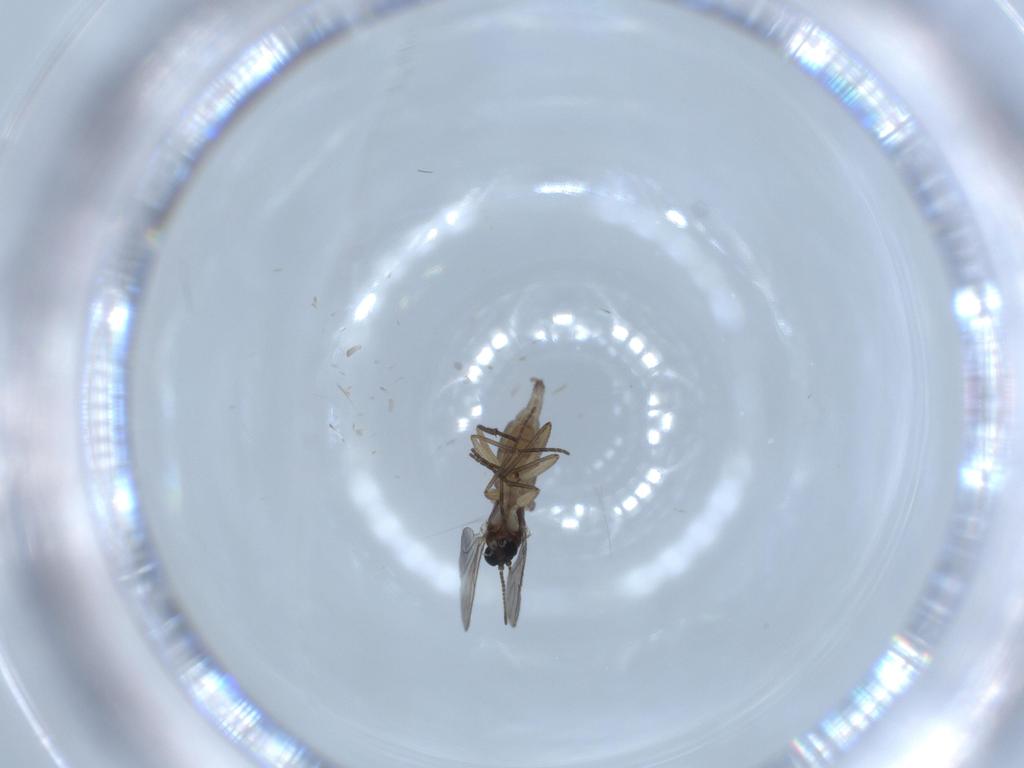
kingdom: Animalia
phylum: Arthropoda
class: Insecta
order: Diptera
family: Sciaridae
